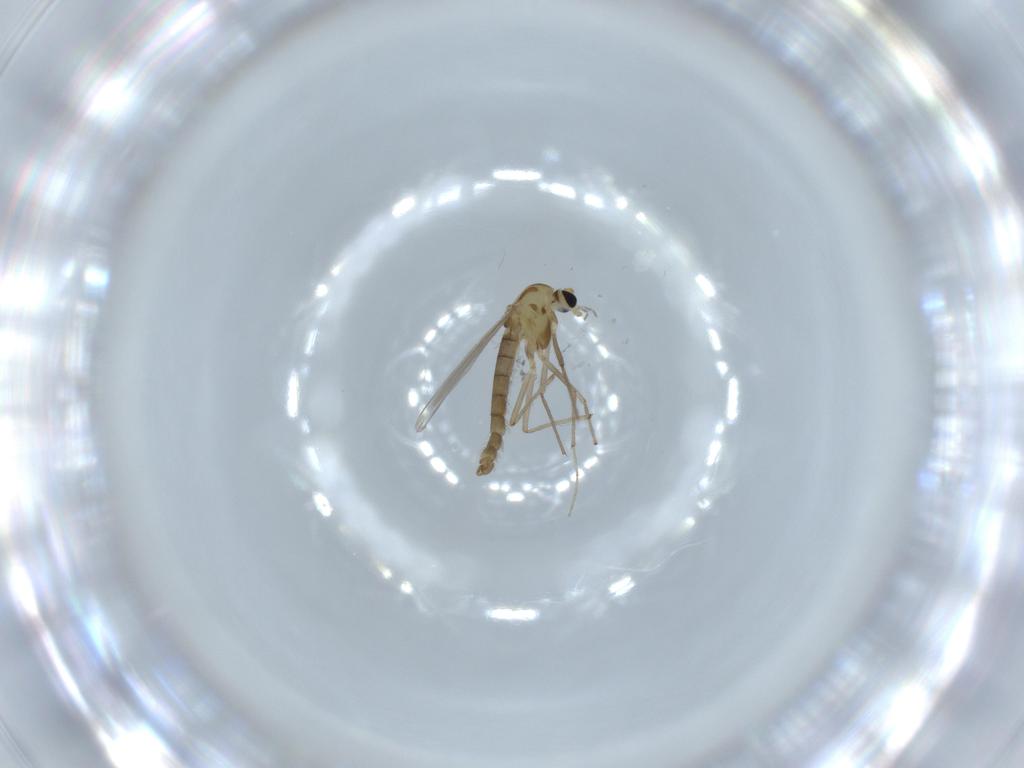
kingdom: Animalia
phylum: Arthropoda
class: Insecta
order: Diptera
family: Chironomidae
